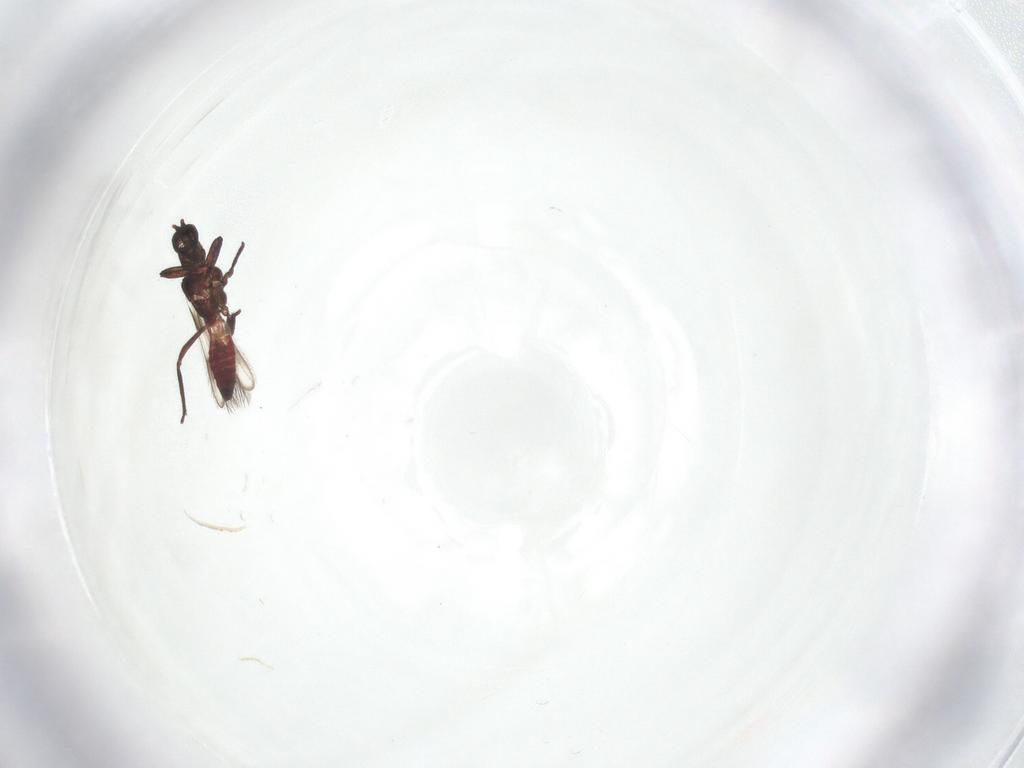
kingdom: Animalia
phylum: Arthropoda
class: Insecta
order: Thysanoptera
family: Aeolothripidae
